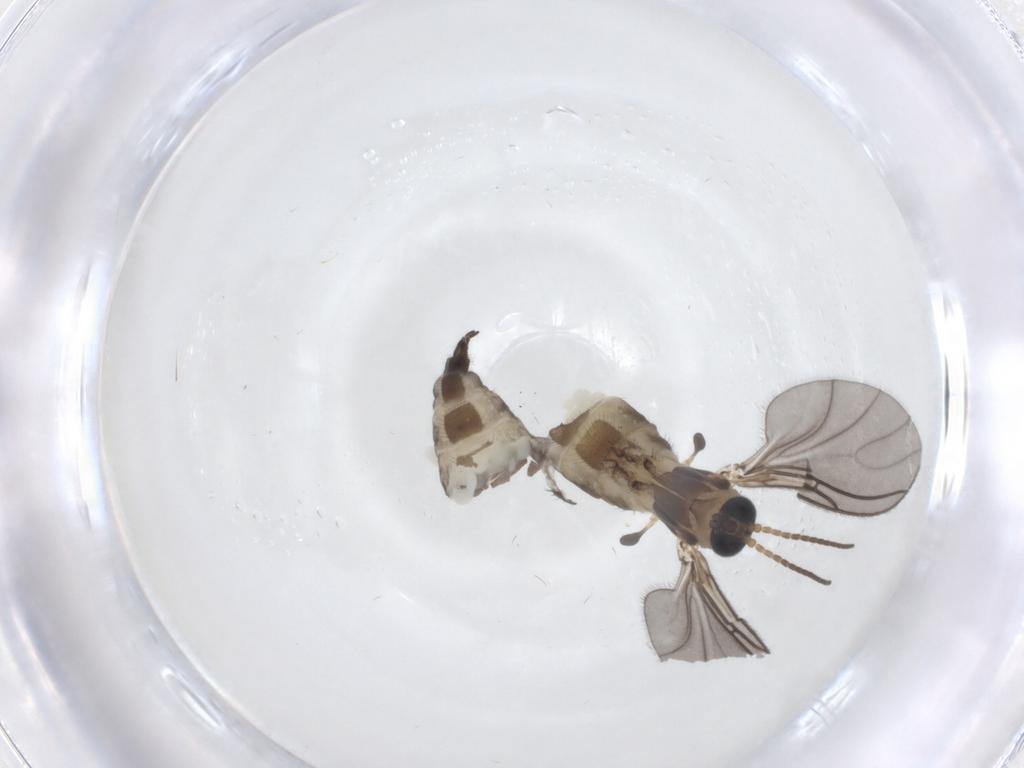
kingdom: Animalia
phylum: Arthropoda
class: Insecta
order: Diptera
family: Sciaridae
